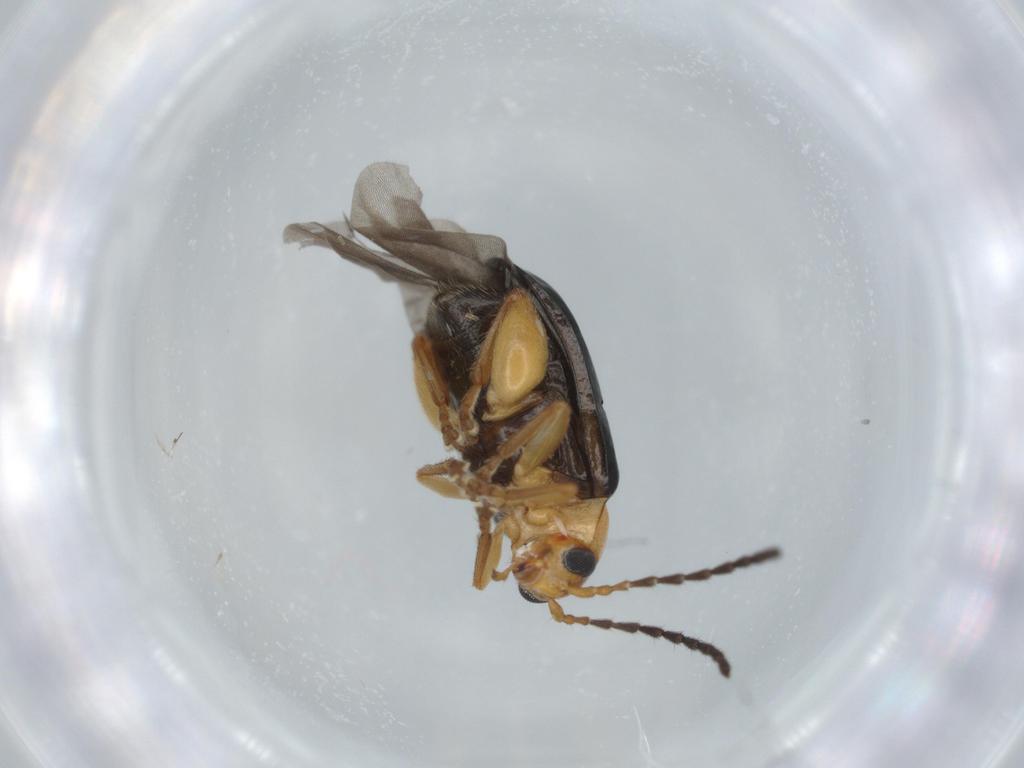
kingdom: Animalia
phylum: Arthropoda
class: Insecta
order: Coleoptera
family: Chrysomelidae
